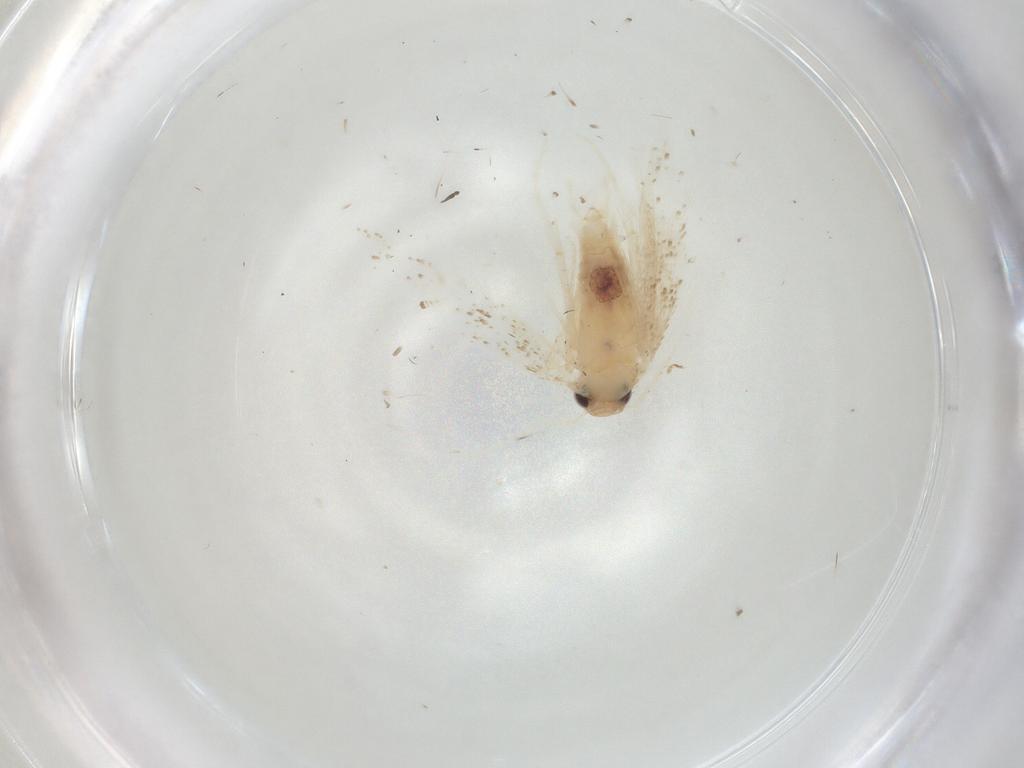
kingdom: Animalia
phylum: Arthropoda
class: Insecta
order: Lepidoptera
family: Gelechiidae
